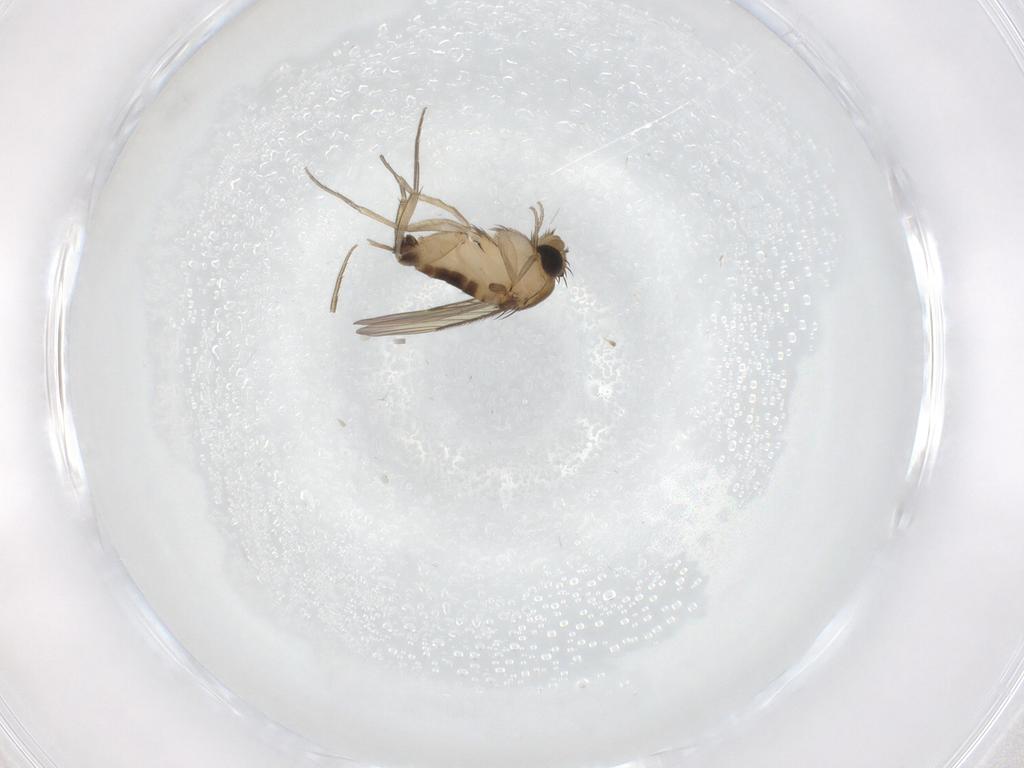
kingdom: Animalia
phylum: Arthropoda
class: Insecta
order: Diptera
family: Phoridae
